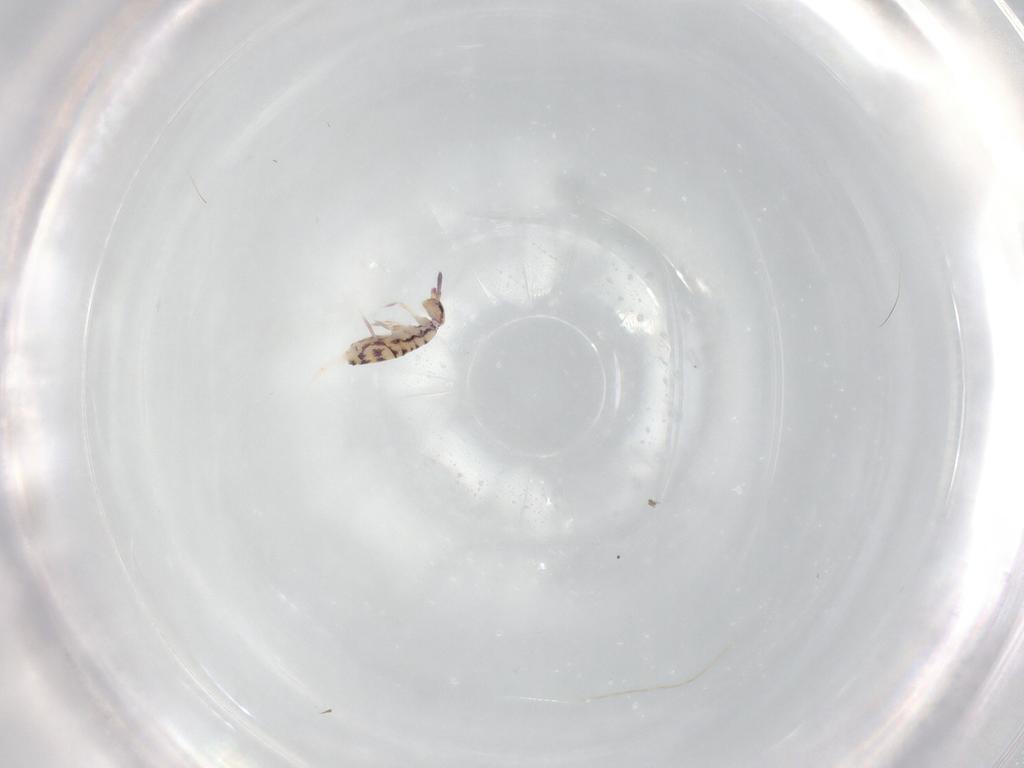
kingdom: Animalia
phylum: Arthropoda
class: Collembola
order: Entomobryomorpha
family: Entomobryidae
